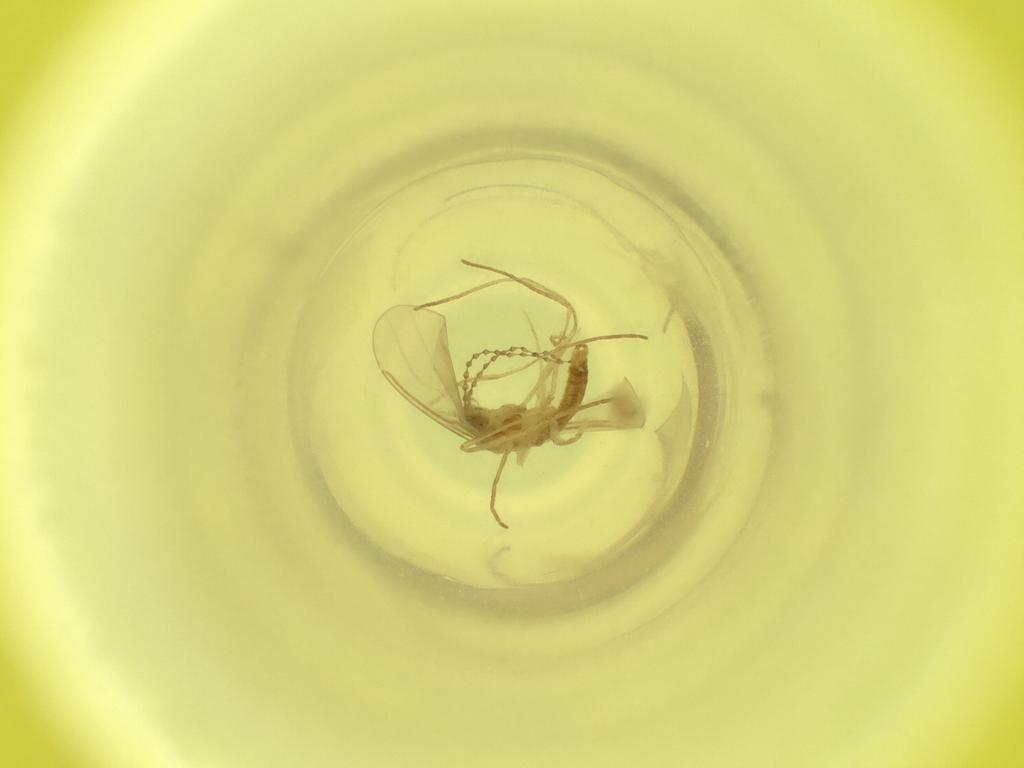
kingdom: Animalia
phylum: Arthropoda
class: Insecta
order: Diptera
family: Cecidomyiidae
